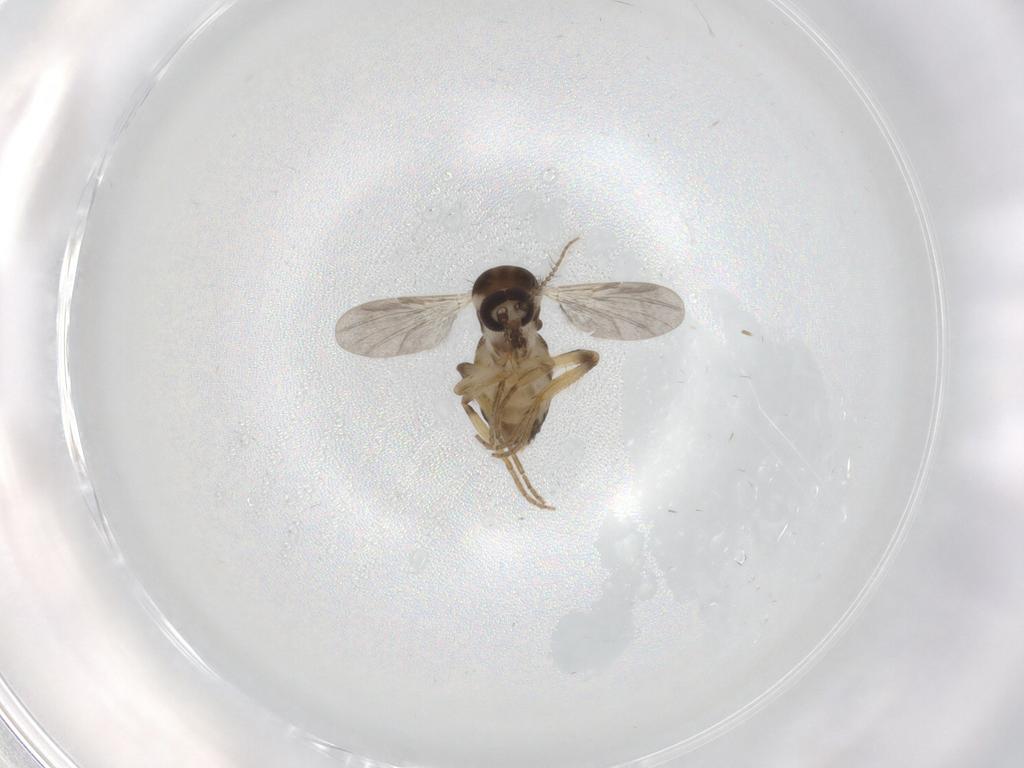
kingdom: Animalia
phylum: Arthropoda
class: Insecta
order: Diptera
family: Ceratopogonidae
